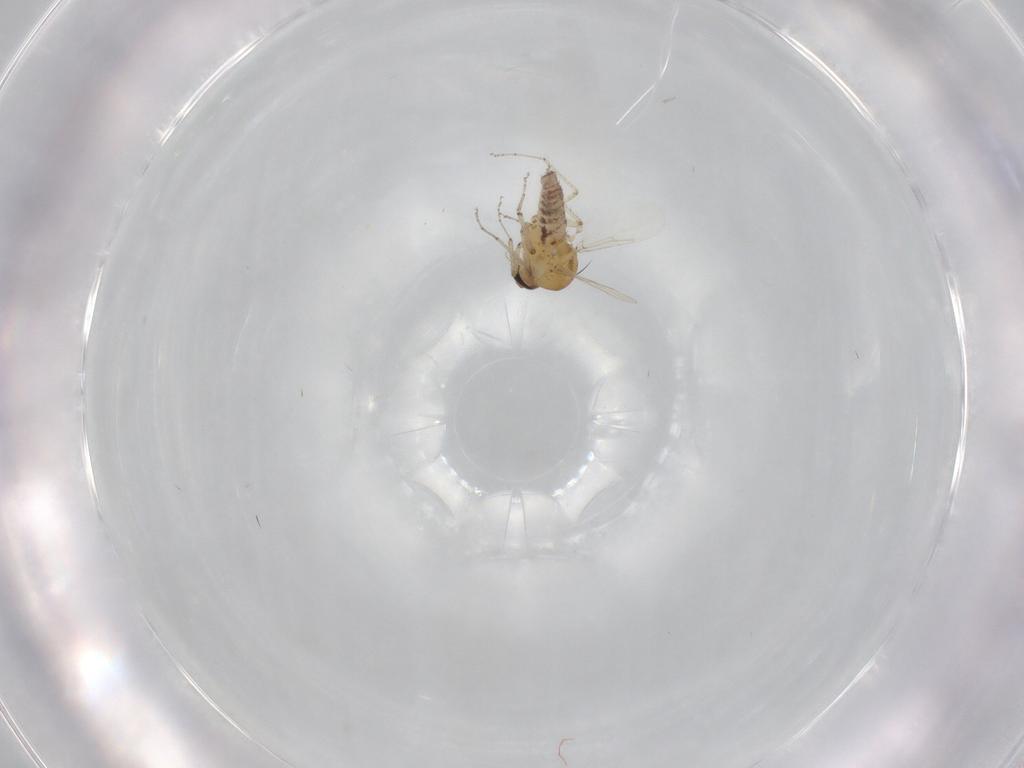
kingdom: Animalia
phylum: Arthropoda
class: Insecta
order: Diptera
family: Ceratopogonidae
